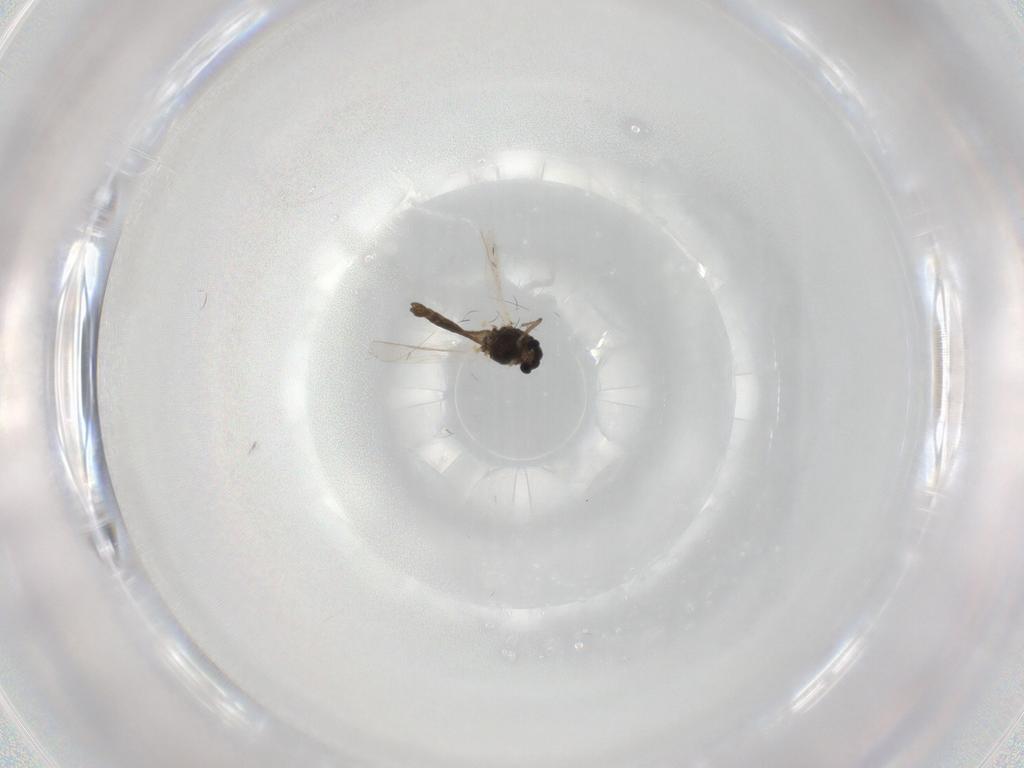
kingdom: Animalia
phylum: Arthropoda
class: Insecta
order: Diptera
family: Chironomidae
